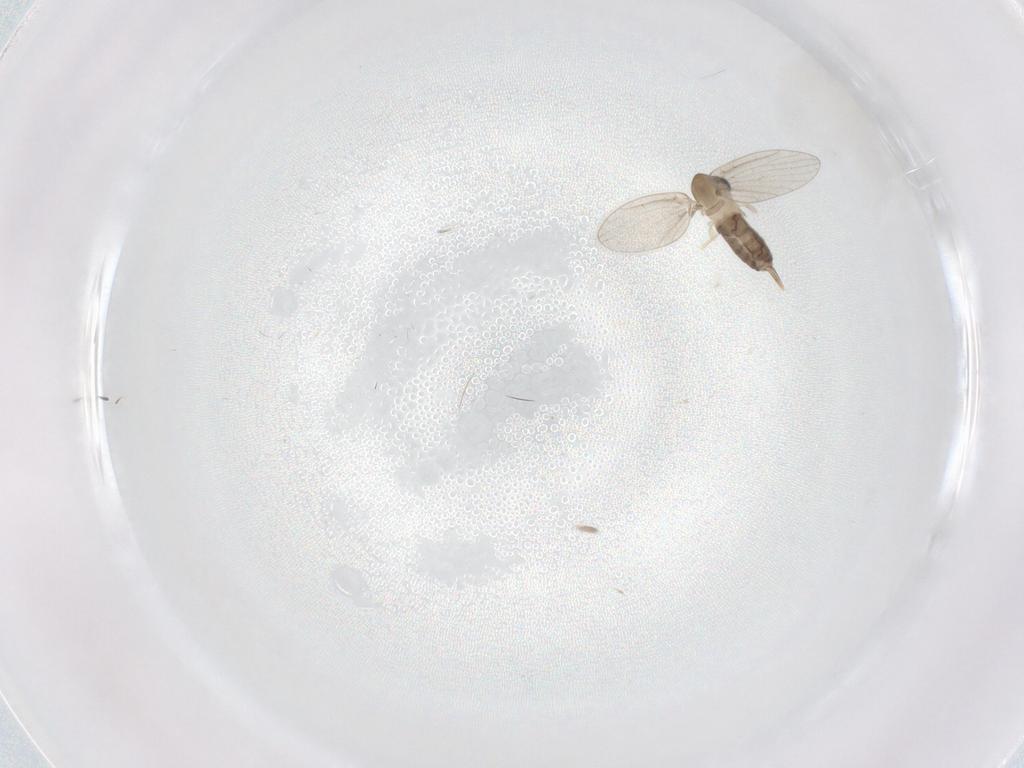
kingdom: Animalia
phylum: Arthropoda
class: Insecta
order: Diptera
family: Psychodidae
